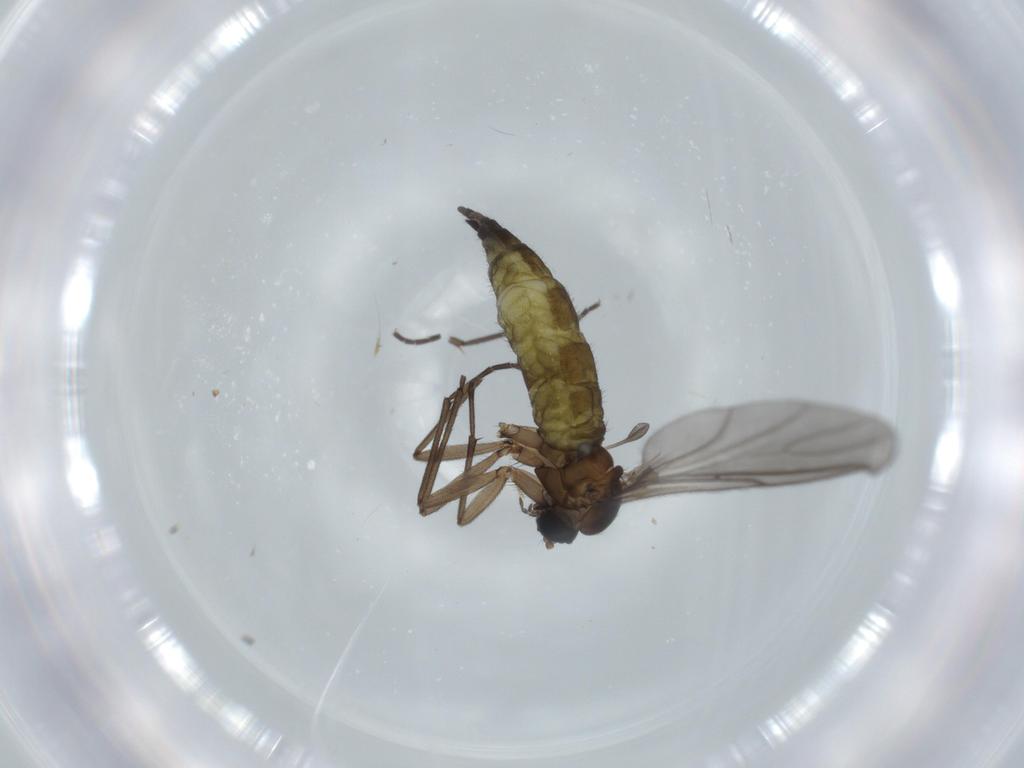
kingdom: Animalia
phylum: Arthropoda
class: Insecta
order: Diptera
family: Sciaridae
